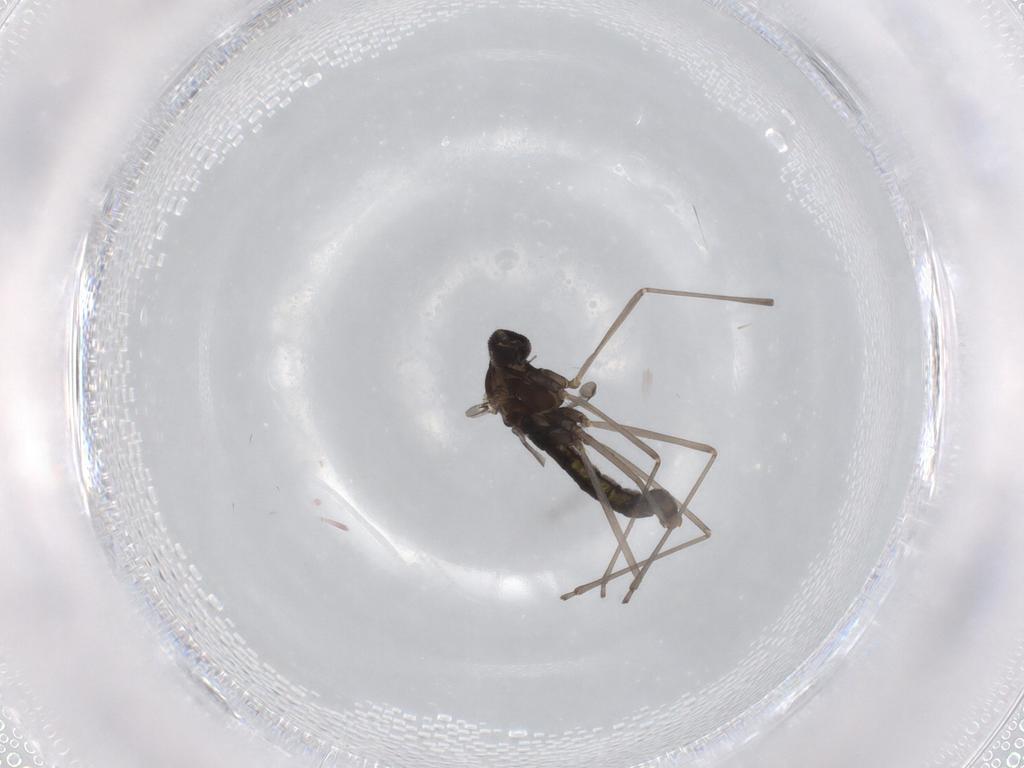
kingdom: Animalia
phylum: Arthropoda
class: Insecta
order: Diptera
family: Cecidomyiidae
